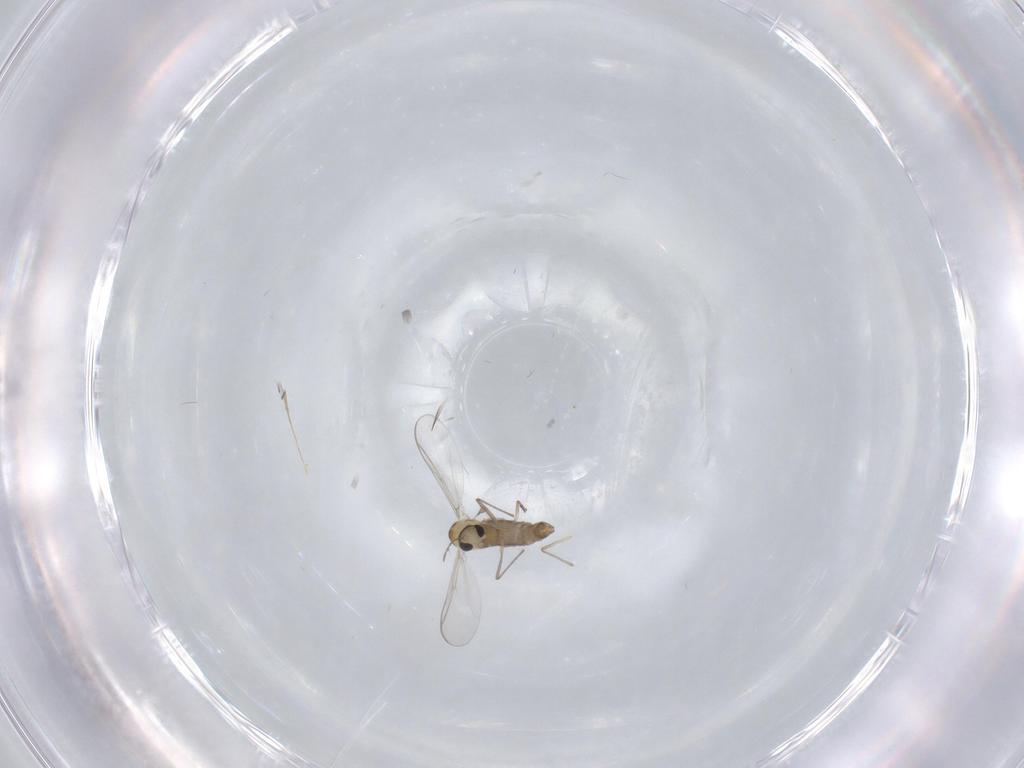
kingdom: Animalia
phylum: Arthropoda
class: Insecta
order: Diptera
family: Chironomidae
